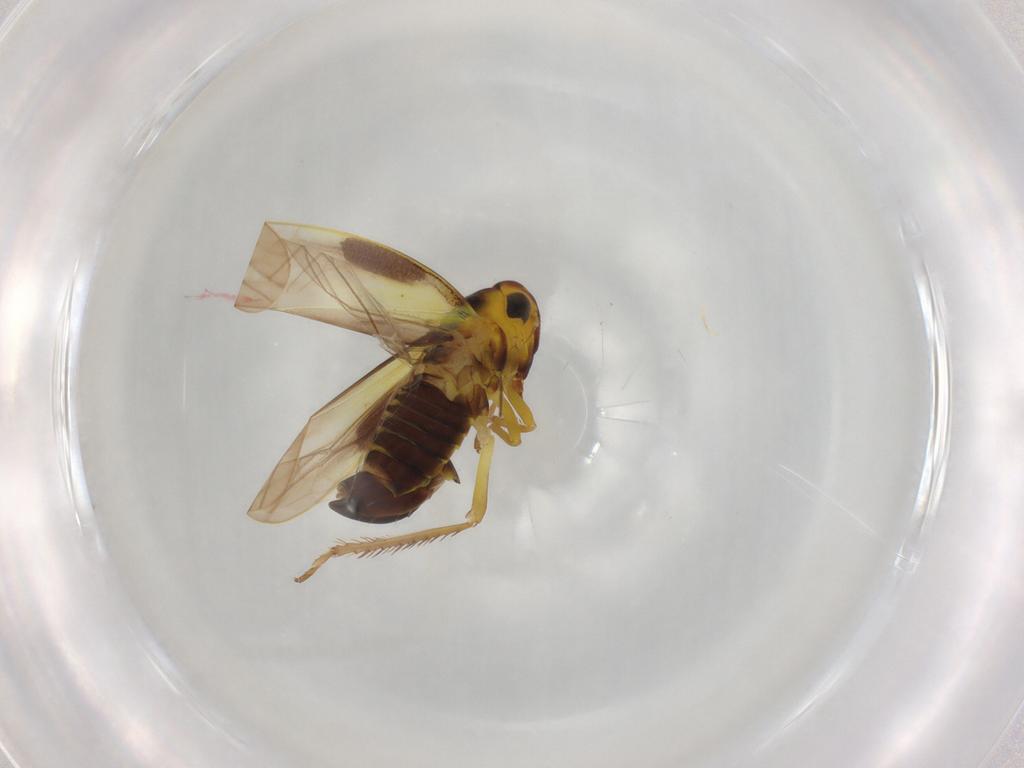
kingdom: Animalia
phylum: Arthropoda
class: Insecta
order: Hemiptera
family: Cicadellidae
